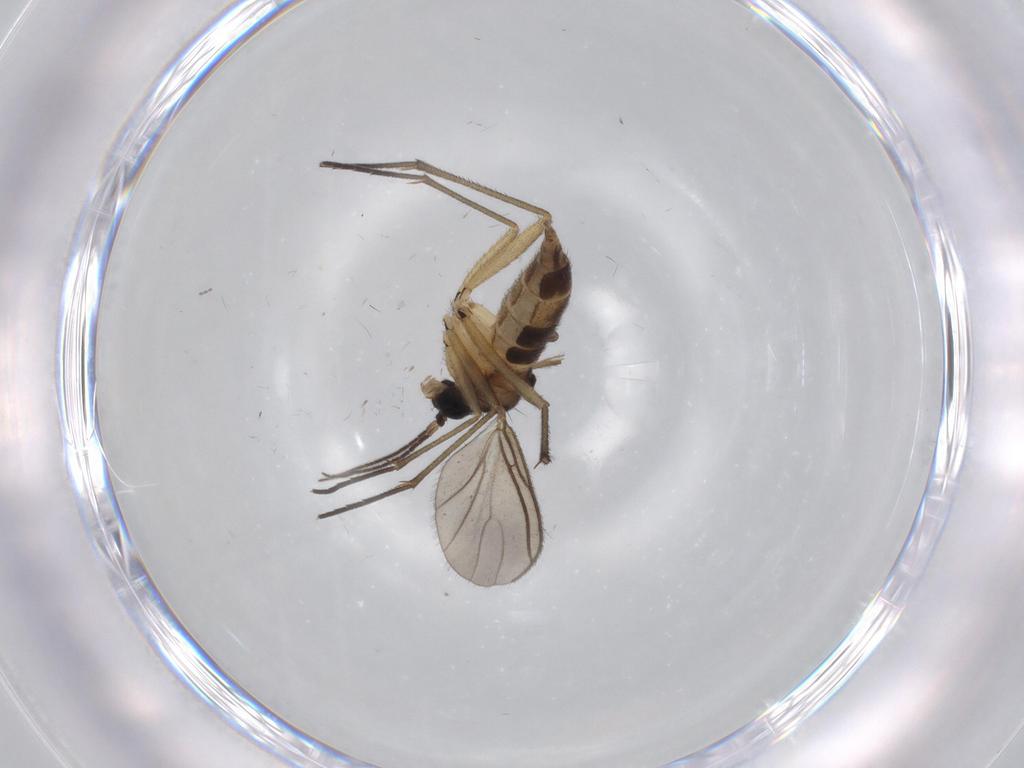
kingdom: Animalia
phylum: Arthropoda
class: Insecta
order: Diptera
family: Sciaridae
